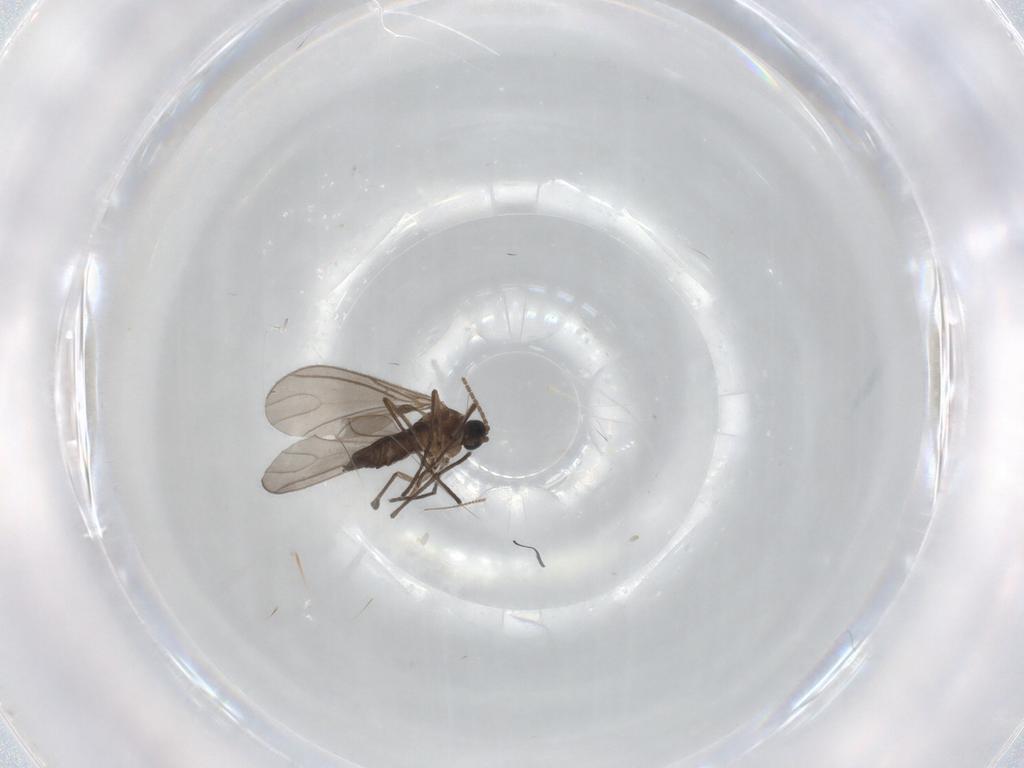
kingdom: Animalia
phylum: Arthropoda
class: Insecta
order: Diptera
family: Sciaridae
